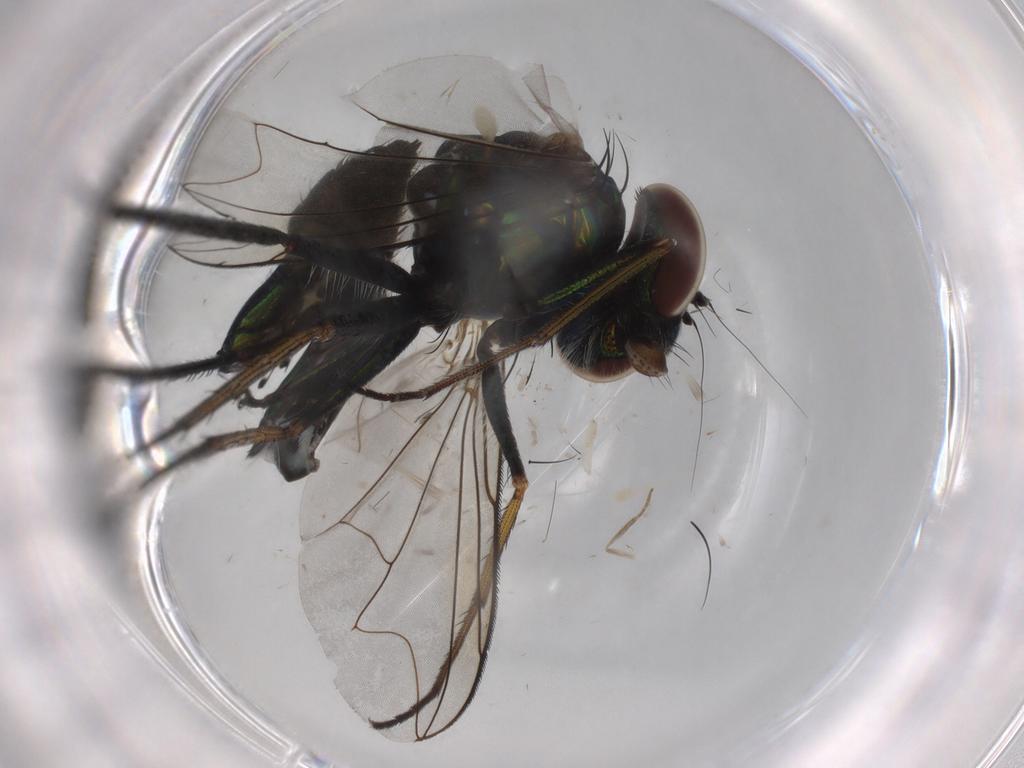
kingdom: Animalia
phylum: Arthropoda
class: Insecta
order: Diptera
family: Dolichopodidae
